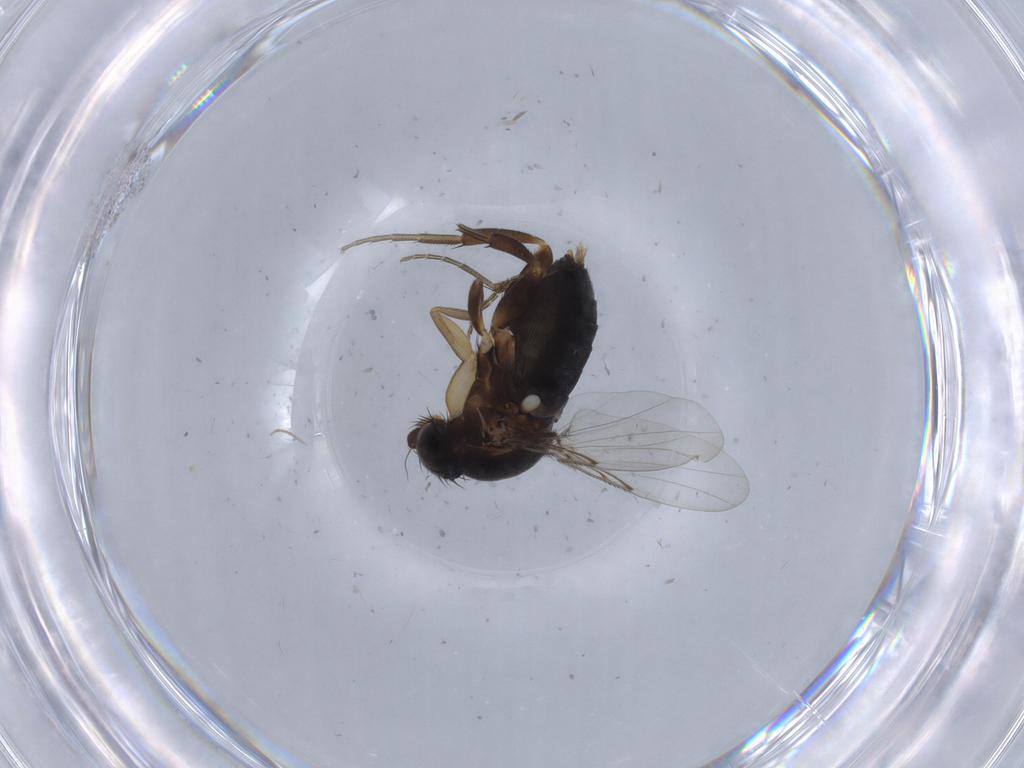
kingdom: Animalia
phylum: Arthropoda
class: Insecta
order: Diptera
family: Phoridae
